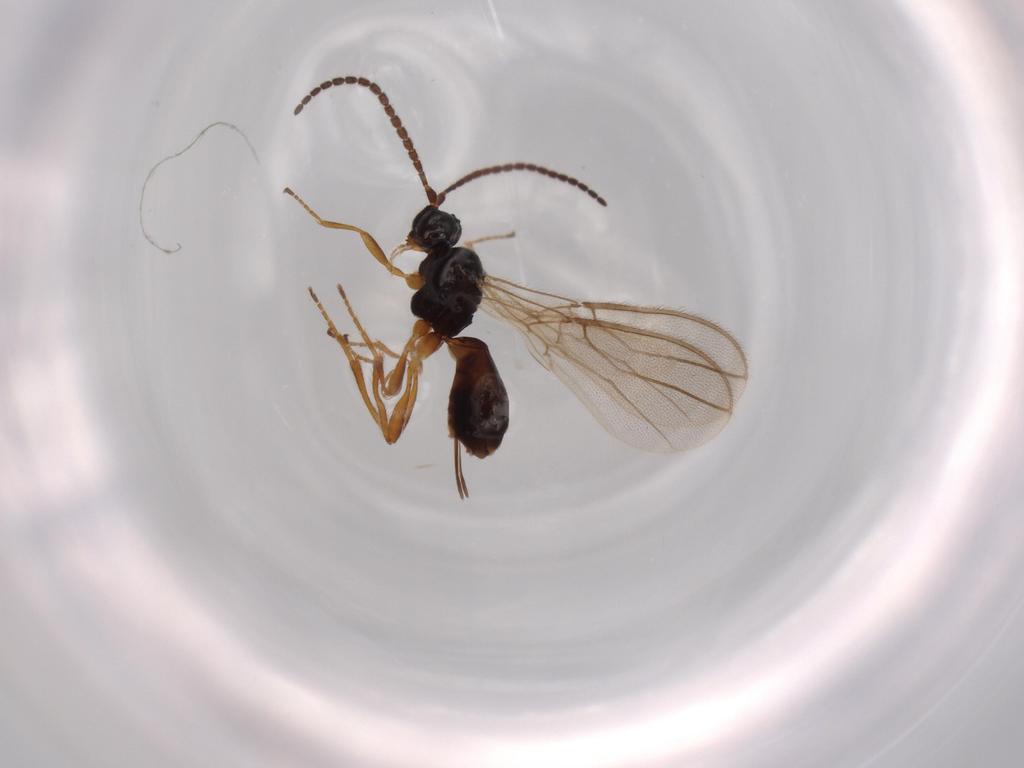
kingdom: Animalia
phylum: Arthropoda
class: Insecta
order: Hymenoptera
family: Braconidae
